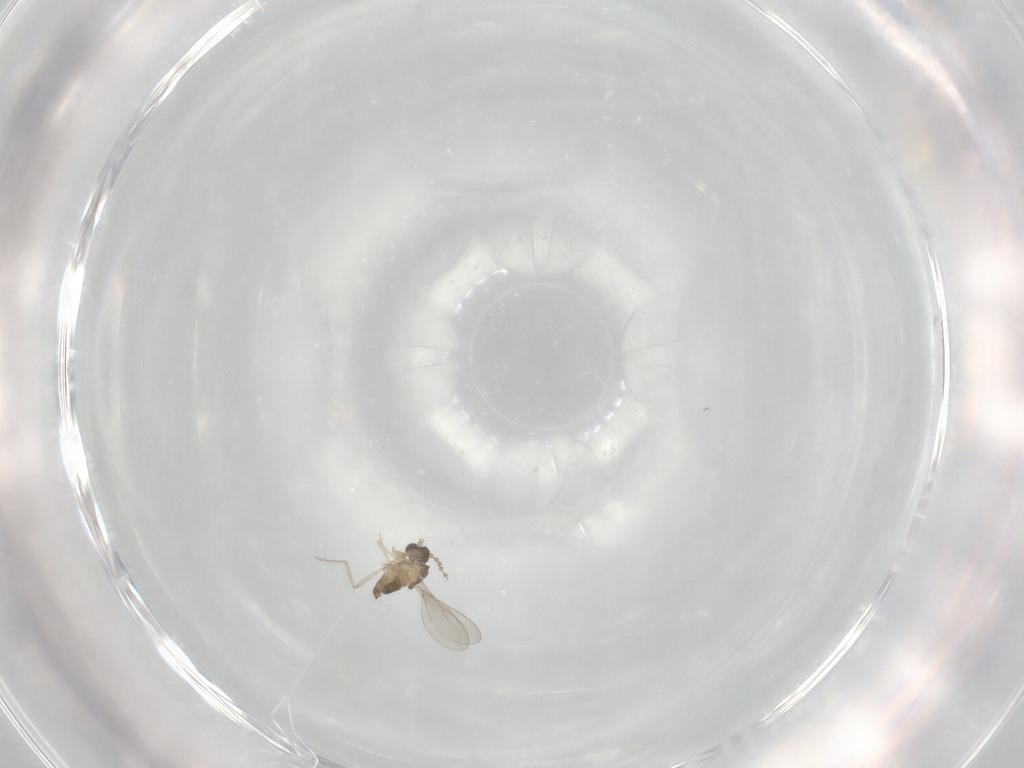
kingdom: Animalia
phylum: Arthropoda
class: Insecta
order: Diptera
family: Cecidomyiidae
